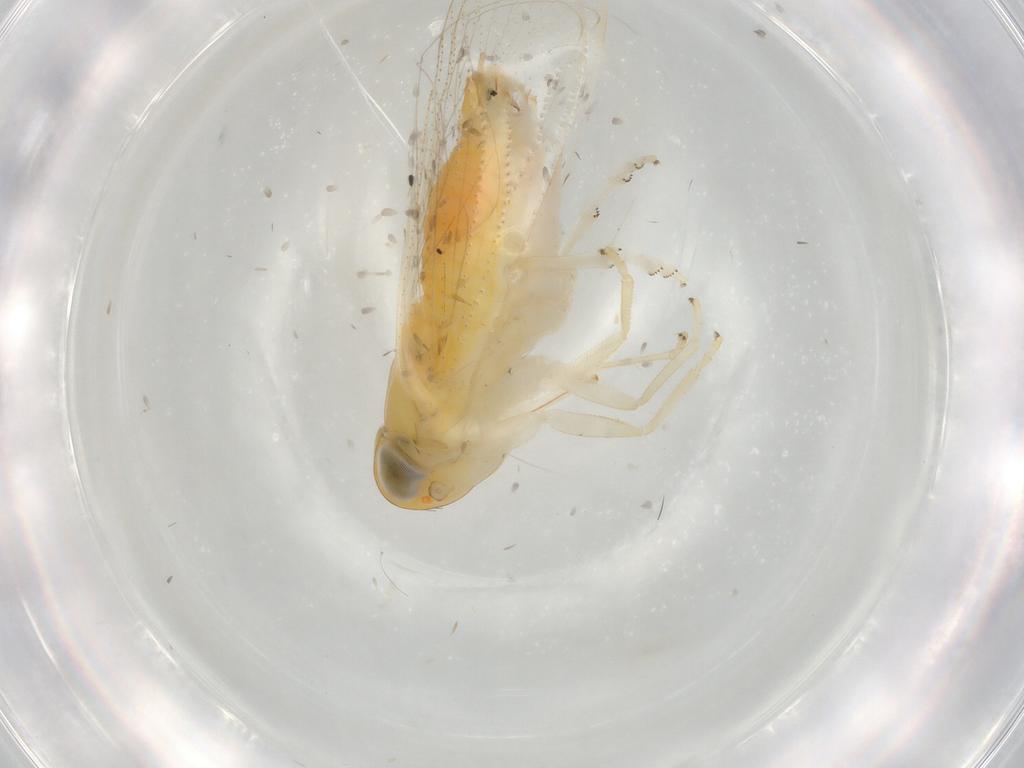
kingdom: Animalia
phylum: Arthropoda
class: Insecta
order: Hemiptera
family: Cixiidae
